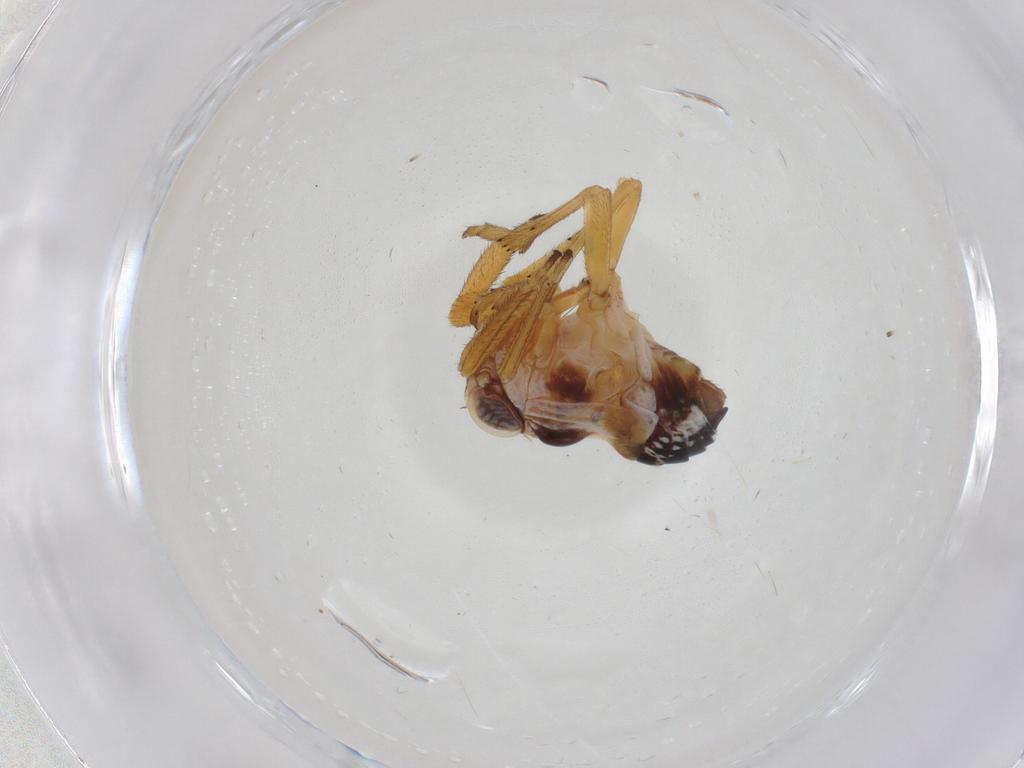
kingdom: Animalia
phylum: Arthropoda
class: Insecta
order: Hemiptera
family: Caliscelidae
